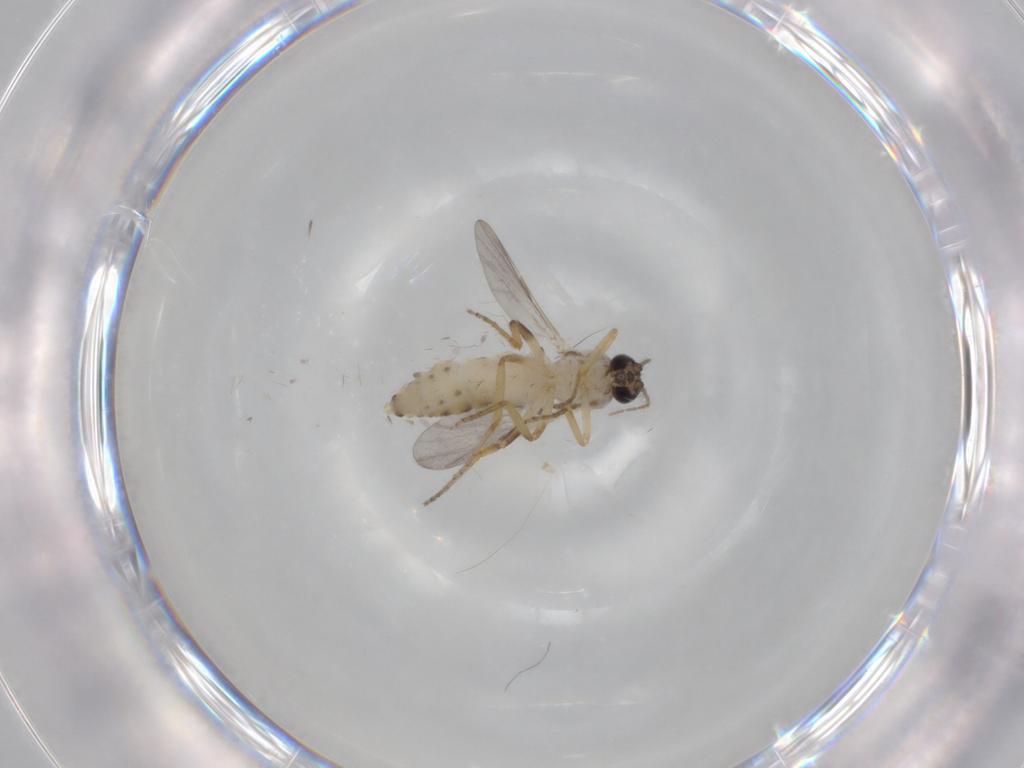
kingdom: Animalia
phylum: Arthropoda
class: Insecta
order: Diptera
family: Ceratopogonidae
